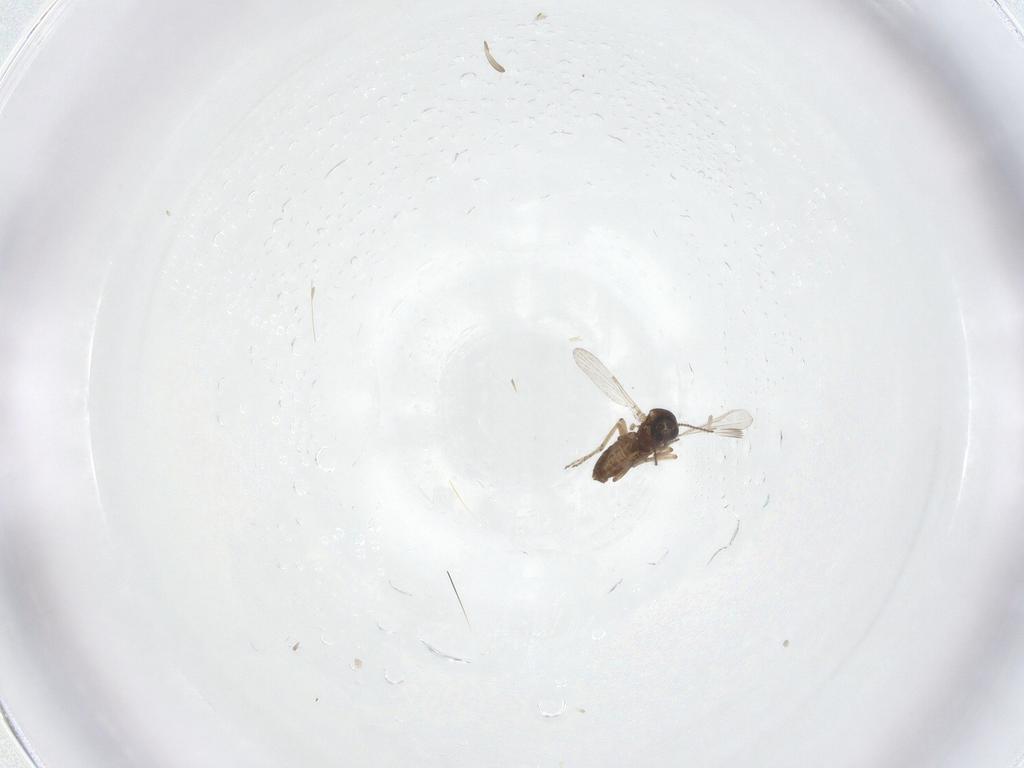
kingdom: Animalia
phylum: Arthropoda
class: Insecta
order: Diptera
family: Ceratopogonidae
